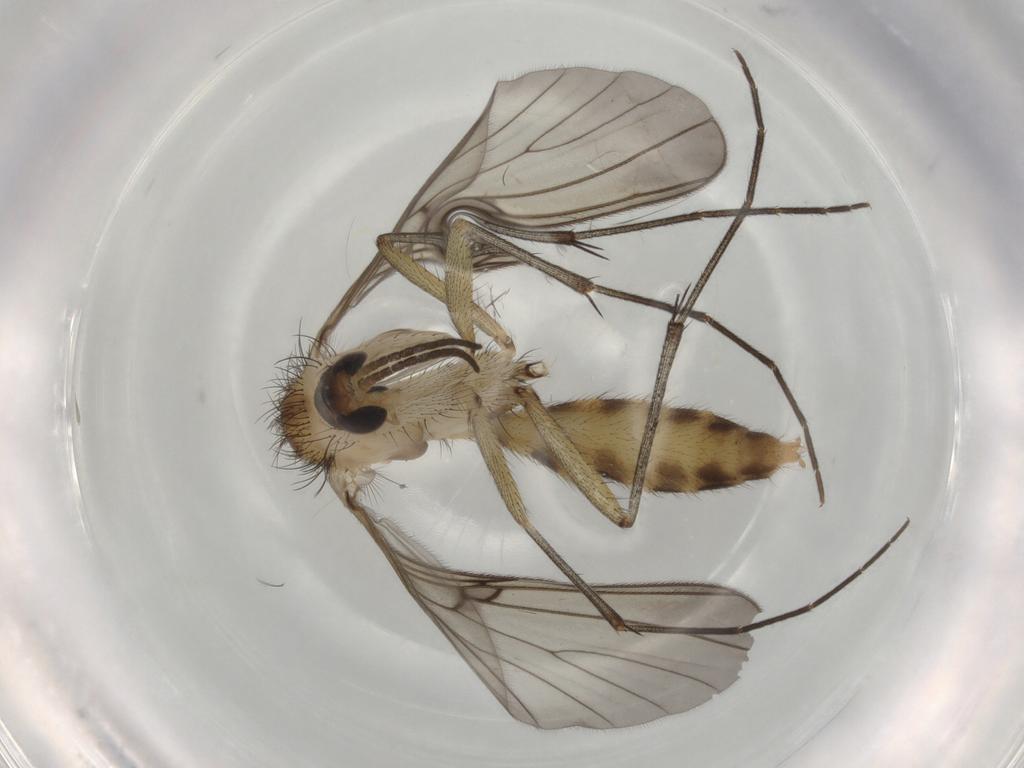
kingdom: Animalia
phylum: Arthropoda
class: Insecta
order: Diptera
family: Mycetophilidae
